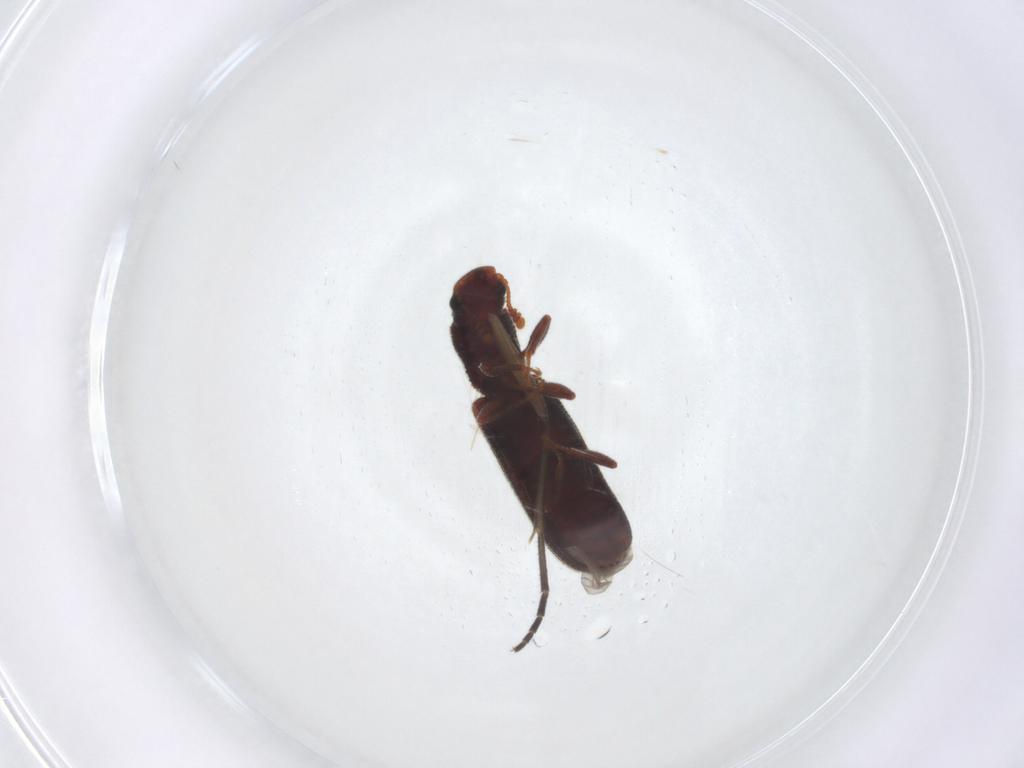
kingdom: Animalia
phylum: Arthropoda
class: Insecta
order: Coleoptera
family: Zopheridae
